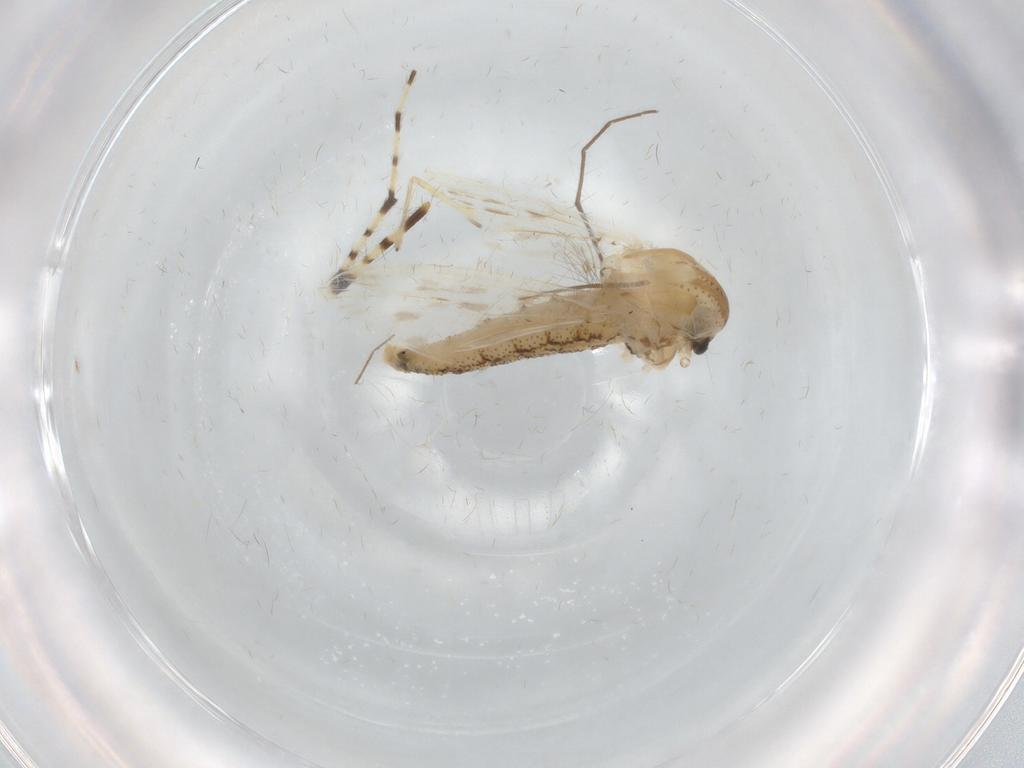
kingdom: Animalia
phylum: Arthropoda
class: Insecta
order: Diptera
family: Chaoboridae
